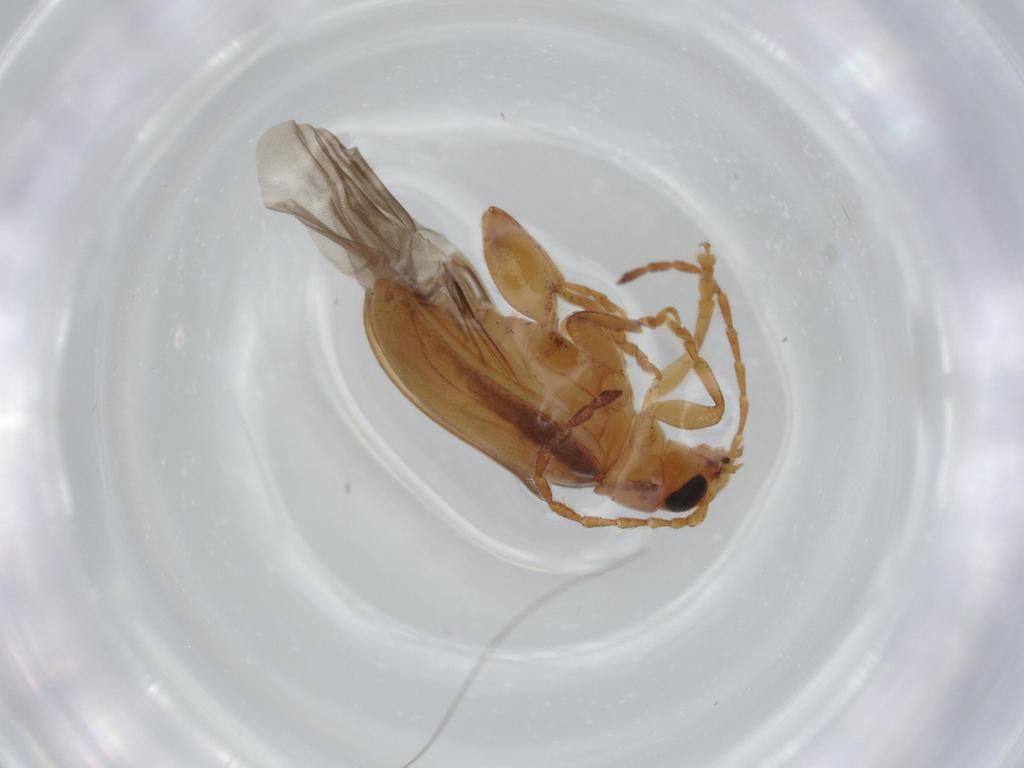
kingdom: Animalia
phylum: Arthropoda
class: Insecta
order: Coleoptera
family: Chrysomelidae
